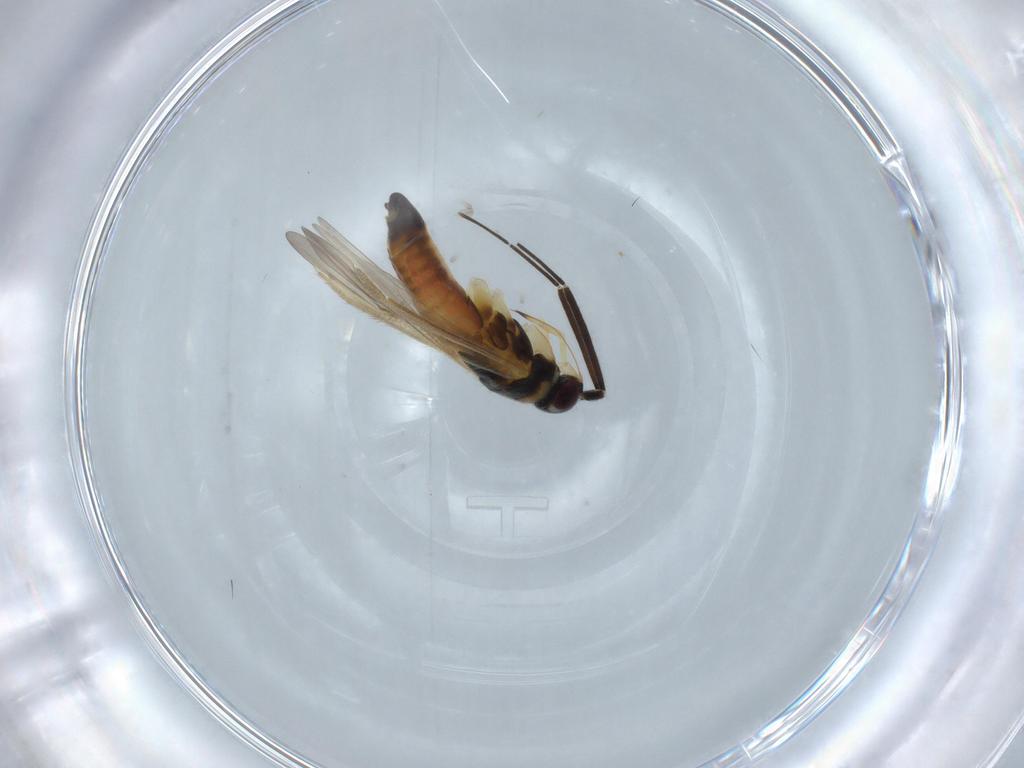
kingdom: Animalia
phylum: Arthropoda
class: Insecta
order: Hemiptera
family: Miridae
